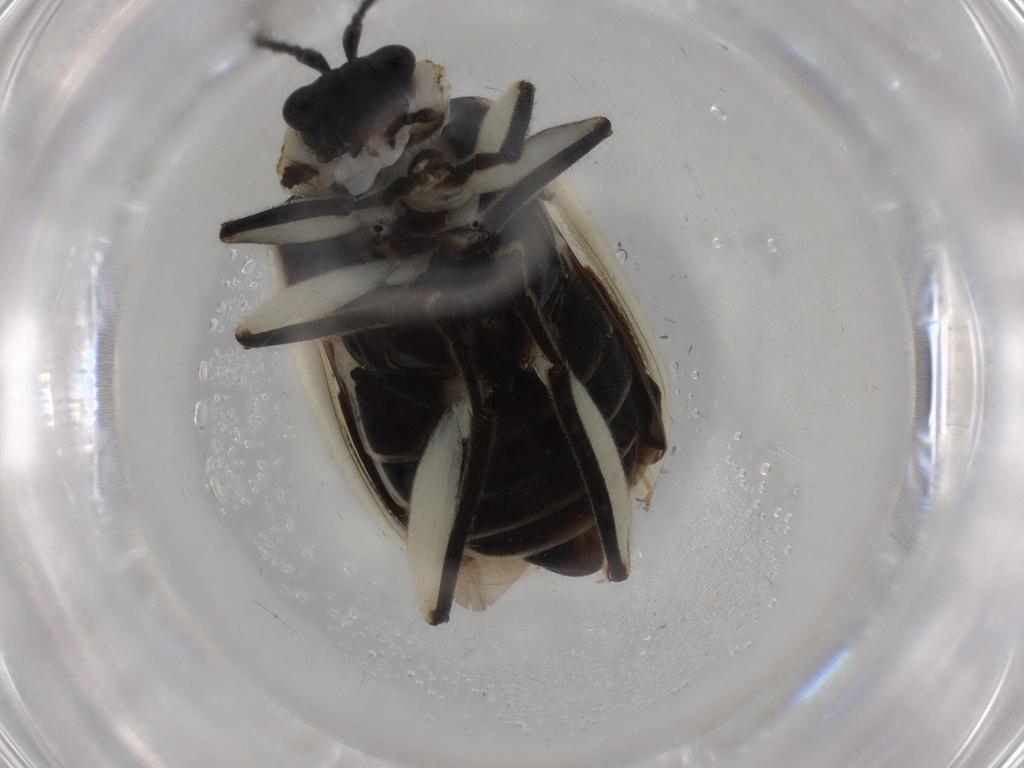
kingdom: Animalia
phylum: Arthropoda
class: Insecta
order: Coleoptera
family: Chrysomelidae
